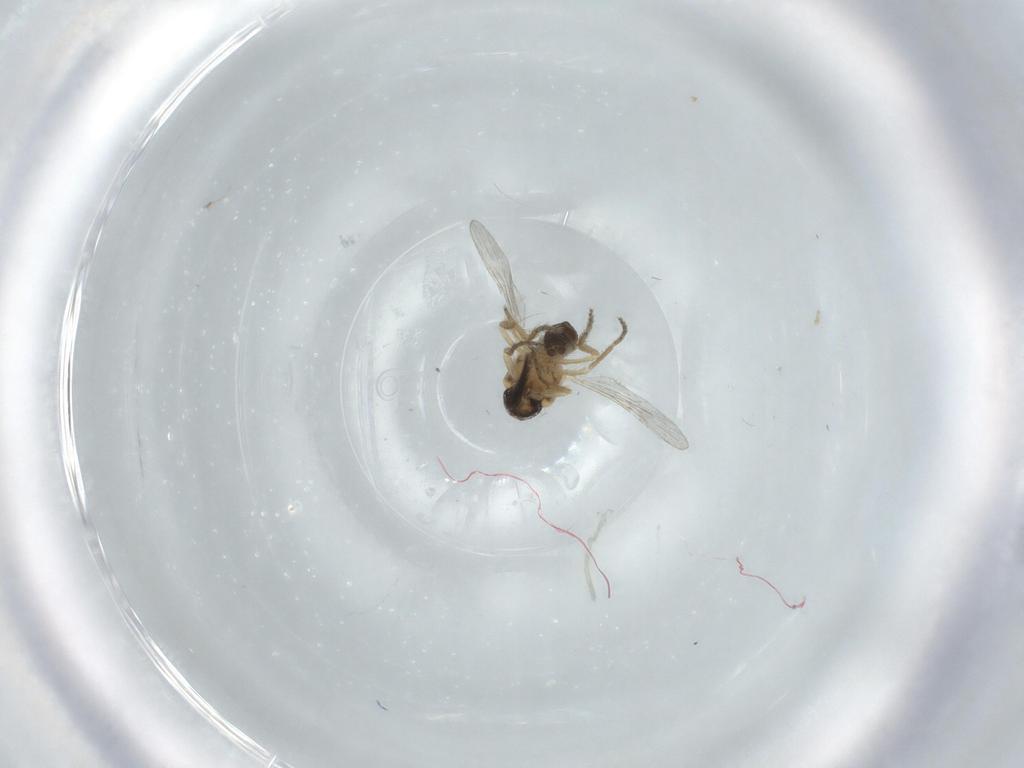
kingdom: Animalia
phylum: Arthropoda
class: Insecta
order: Diptera
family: Ceratopogonidae
